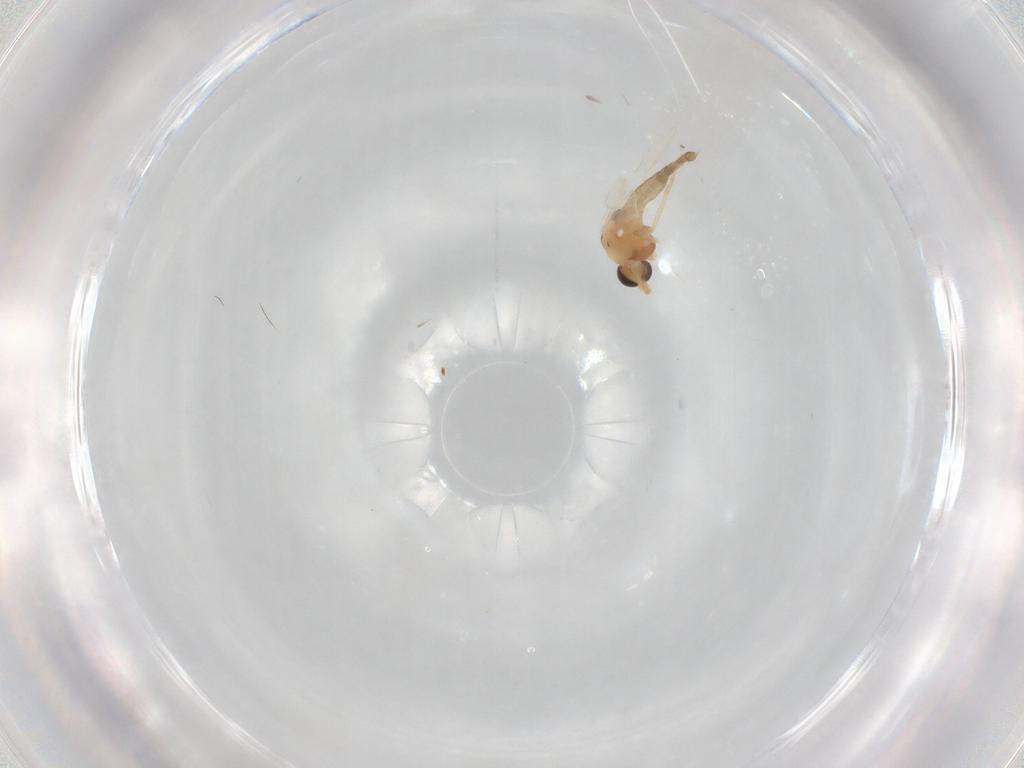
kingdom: Animalia
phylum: Arthropoda
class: Insecta
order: Diptera
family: Chironomidae
